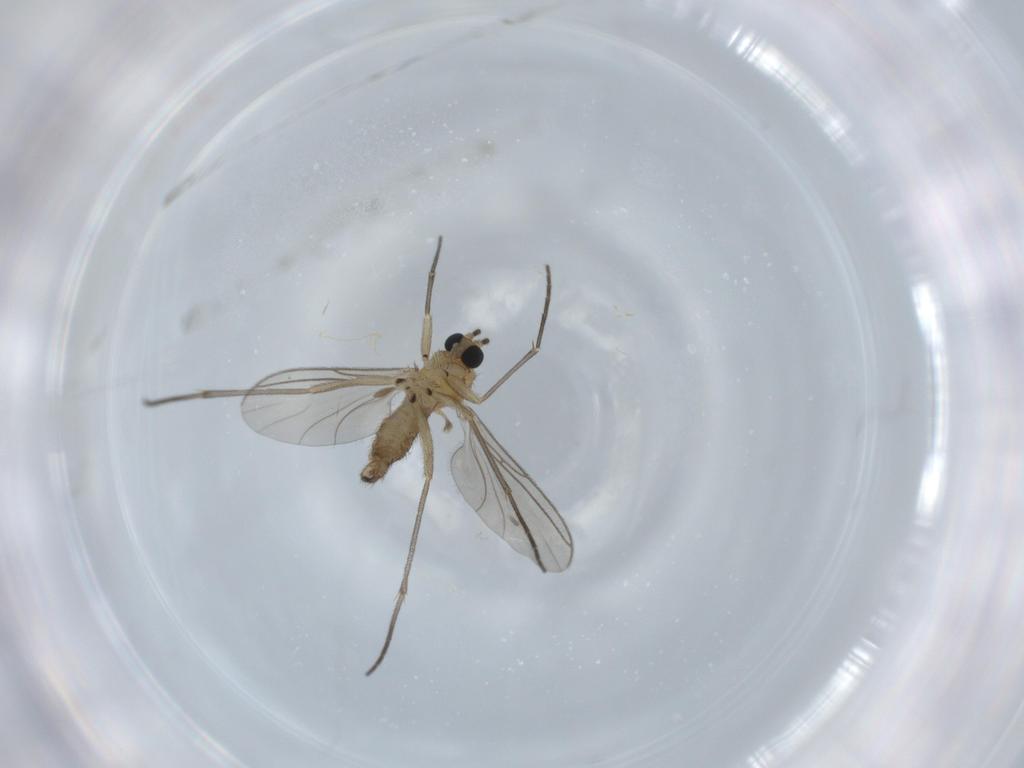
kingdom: Animalia
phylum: Arthropoda
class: Insecta
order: Diptera
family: Sciaridae
